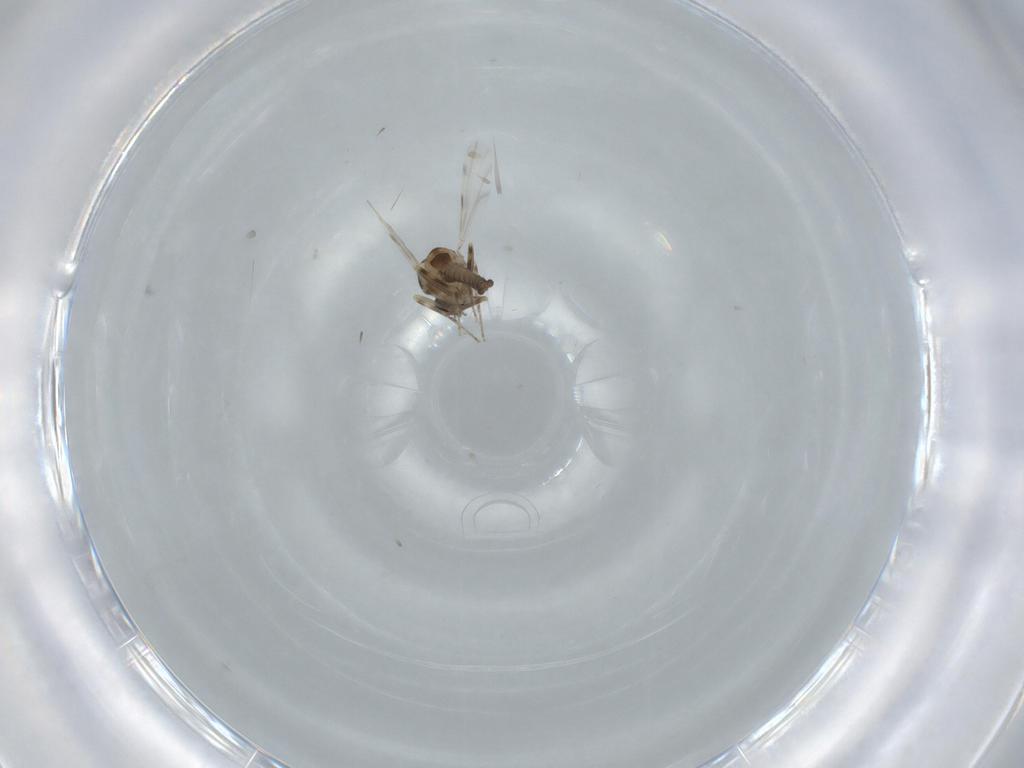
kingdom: Animalia
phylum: Arthropoda
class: Insecta
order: Diptera
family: Ceratopogonidae
